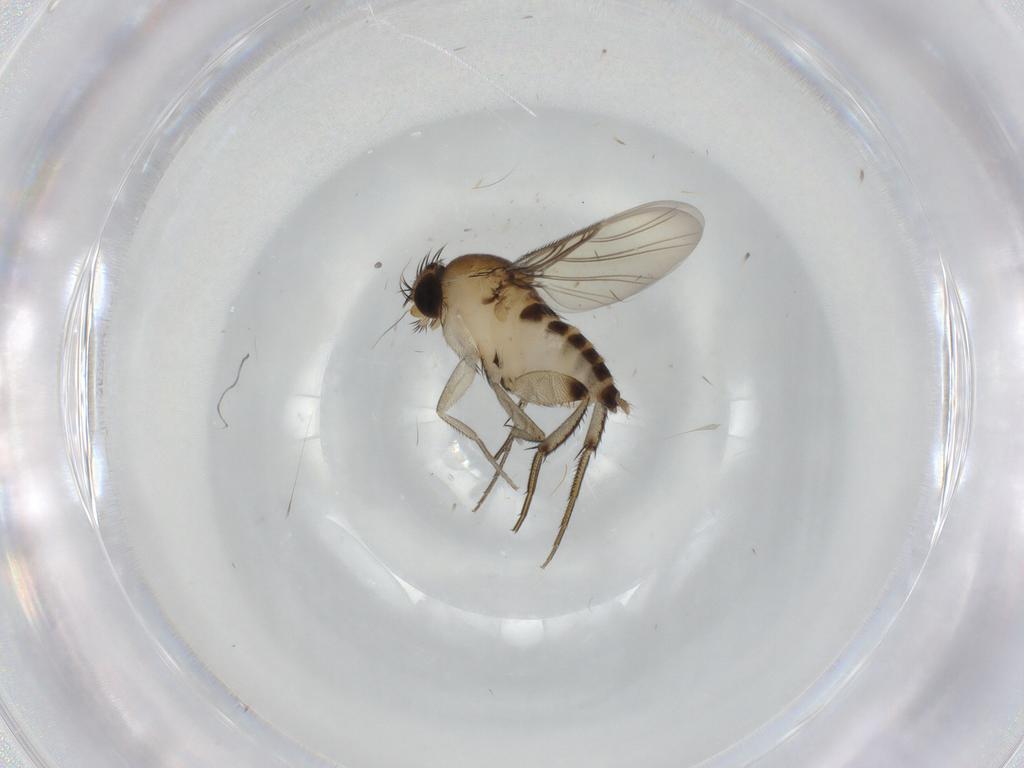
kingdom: Animalia
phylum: Arthropoda
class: Insecta
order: Diptera
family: Phoridae
